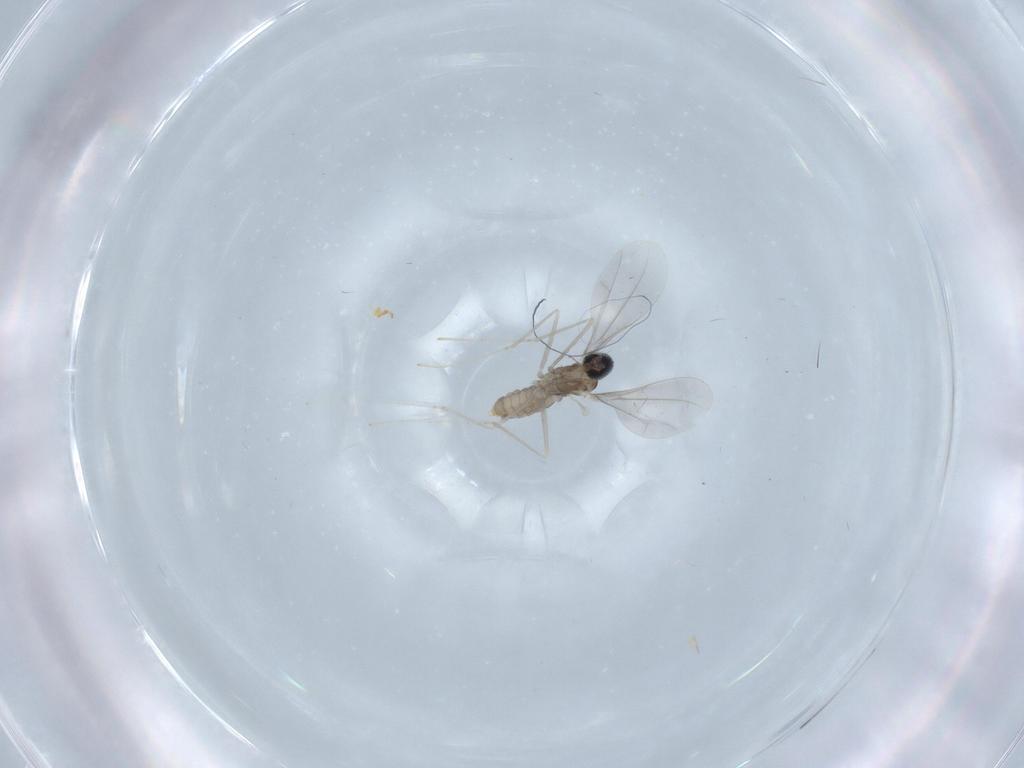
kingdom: Animalia
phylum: Arthropoda
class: Insecta
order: Diptera
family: Cecidomyiidae
